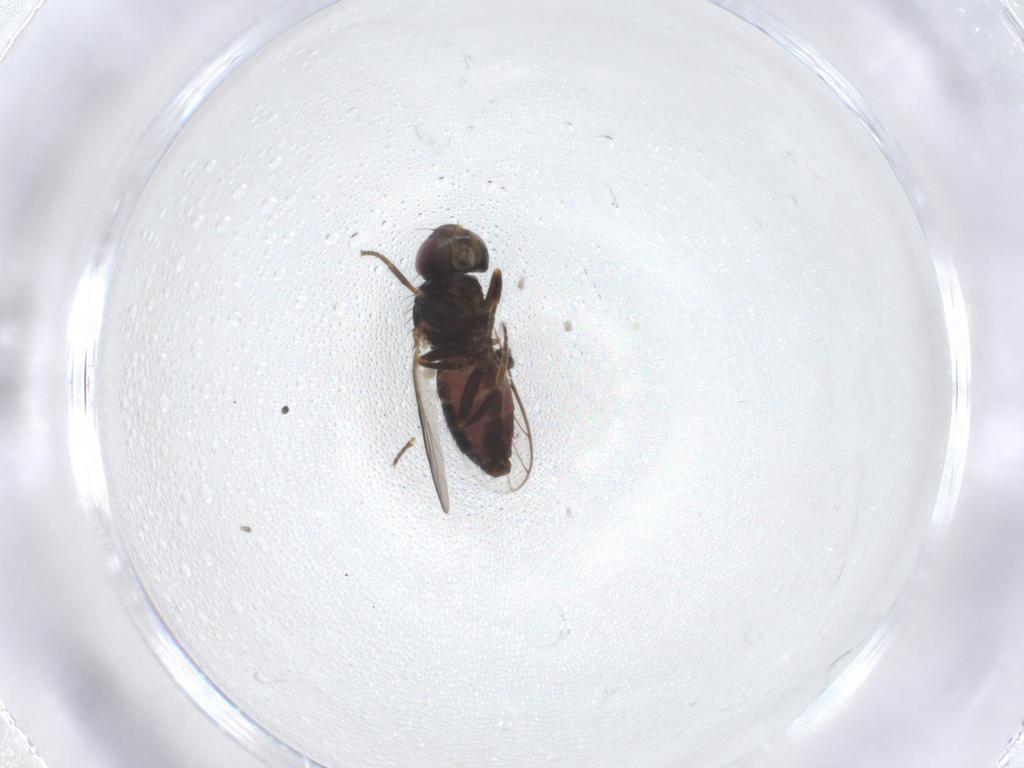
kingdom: Animalia
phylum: Arthropoda
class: Insecta
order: Diptera
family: Chloropidae
